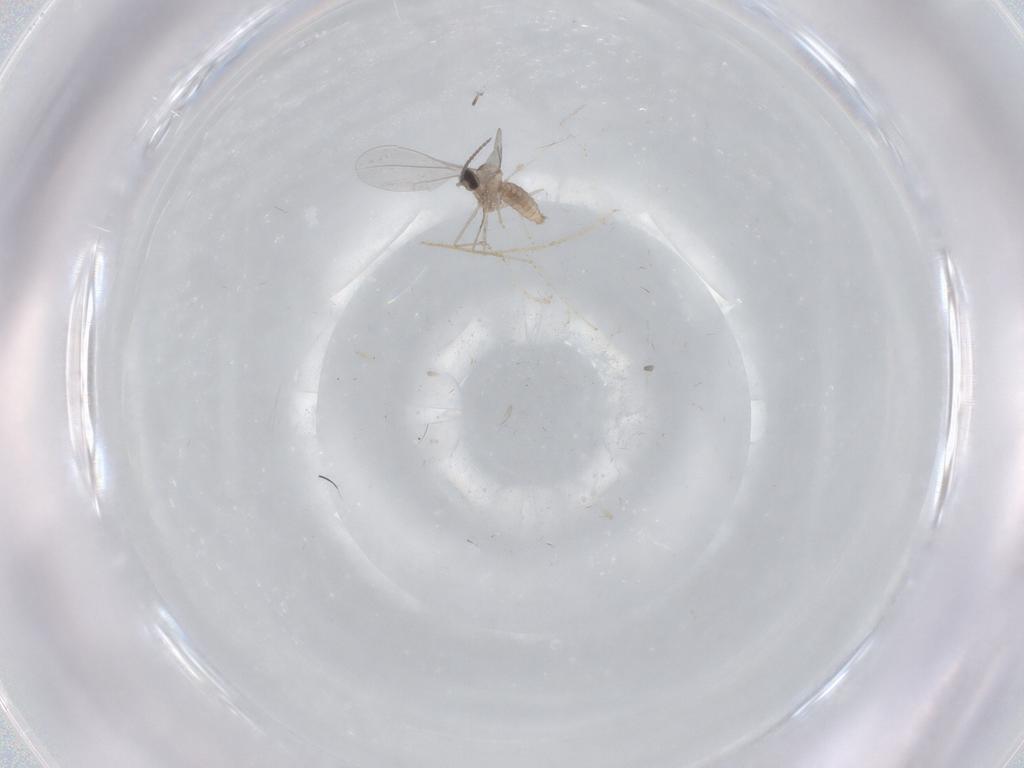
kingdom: Animalia
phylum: Arthropoda
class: Insecta
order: Diptera
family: Cecidomyiidae
